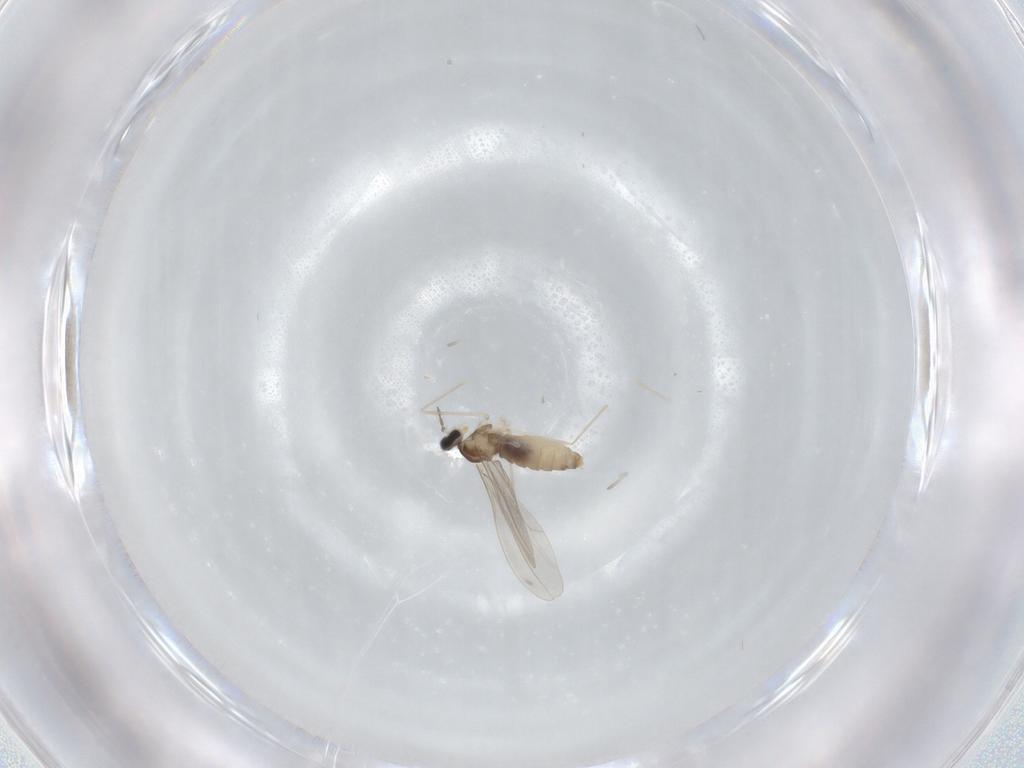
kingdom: Animalia
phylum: Arthropoda
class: Insecta
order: Diptera
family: Cecidomyiidae
